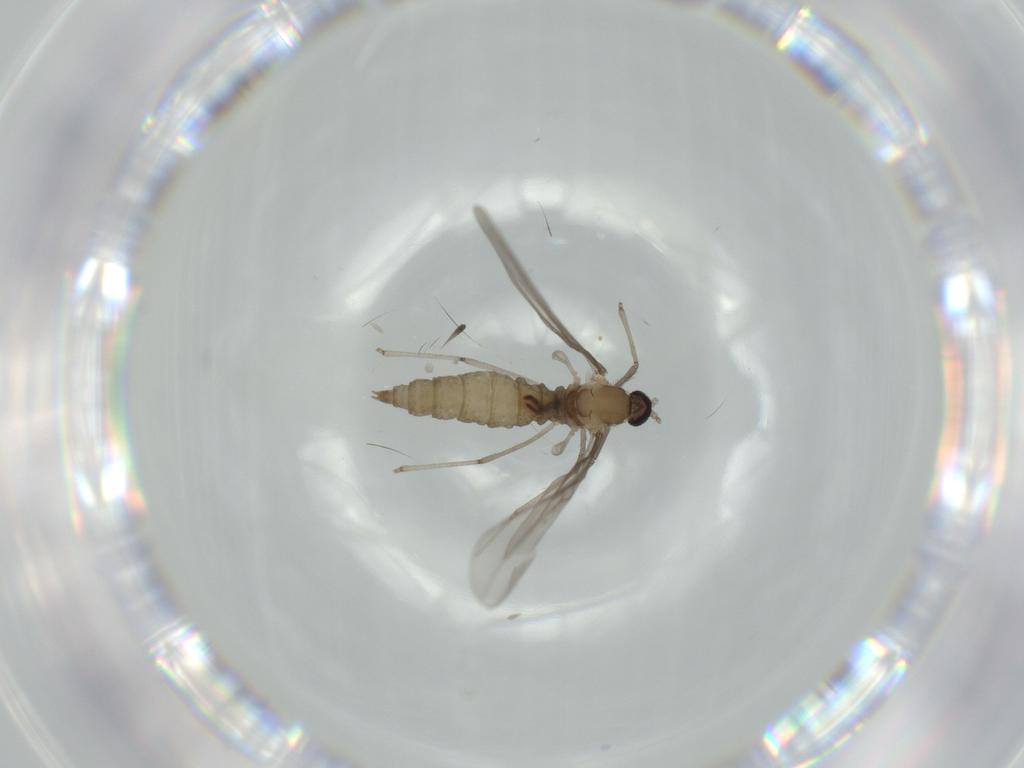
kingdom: Animalia
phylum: Arthropoda
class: Insecta
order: Diptera
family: Cecidomyiidae
